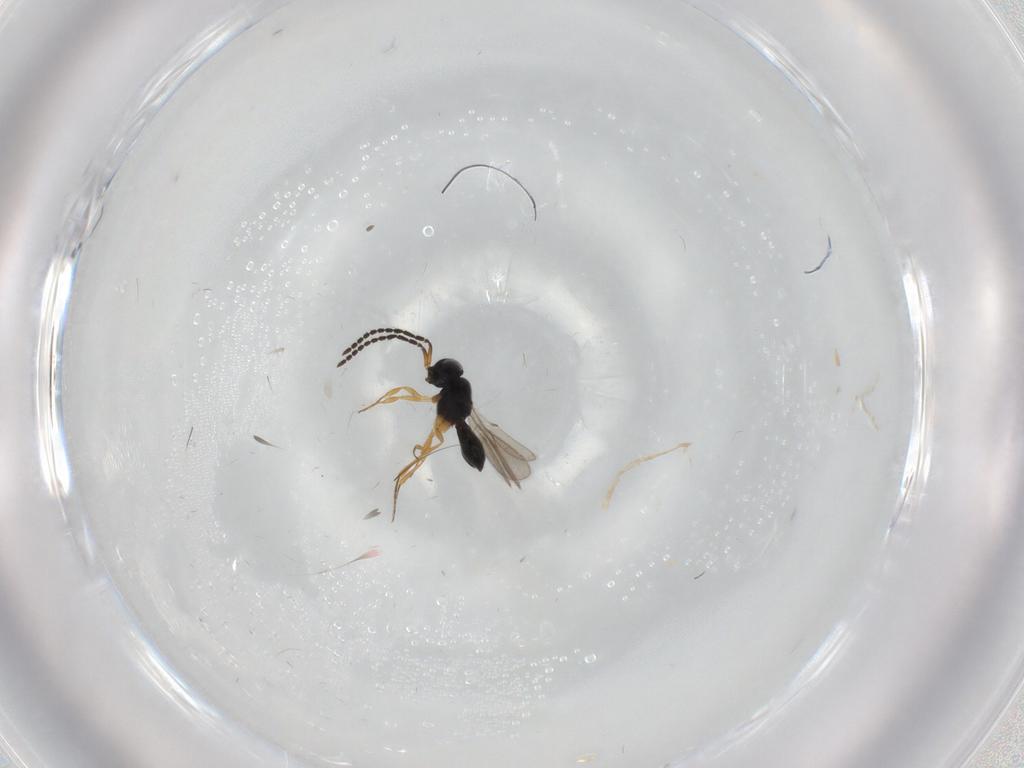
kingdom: Animalia
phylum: Arthropoda
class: Insecta
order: Hymenoptera
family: Scelionidae
